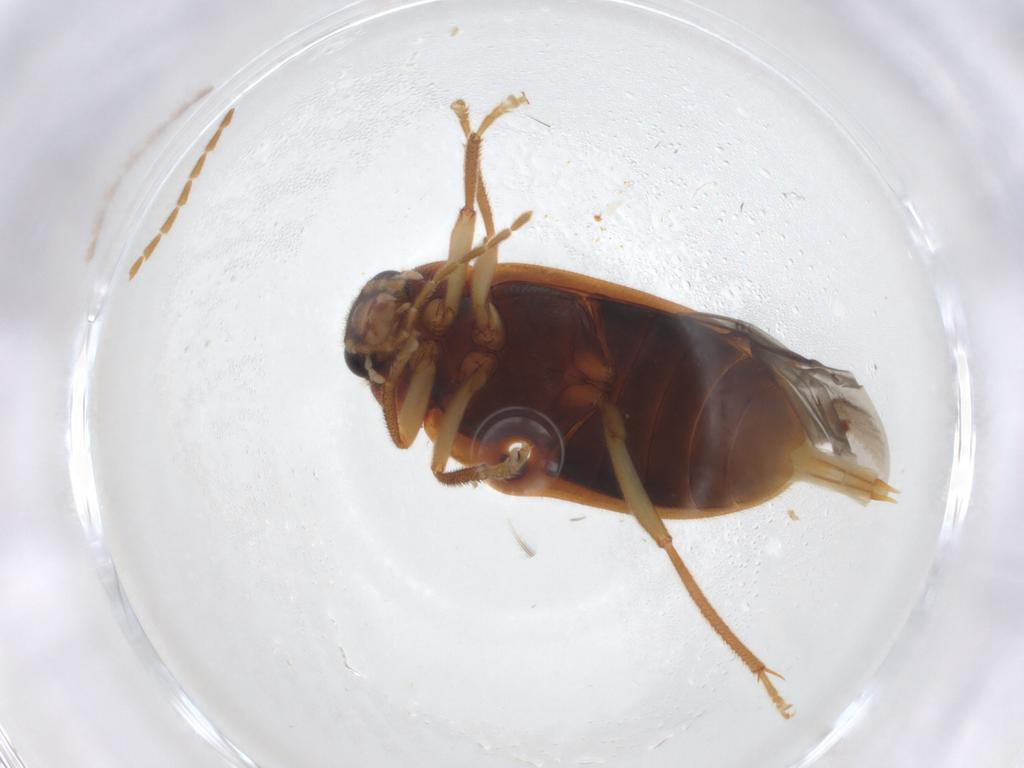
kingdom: Animalia
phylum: Arthropoda
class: Insecta
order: Coleoptera
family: Ptilodactylidae
